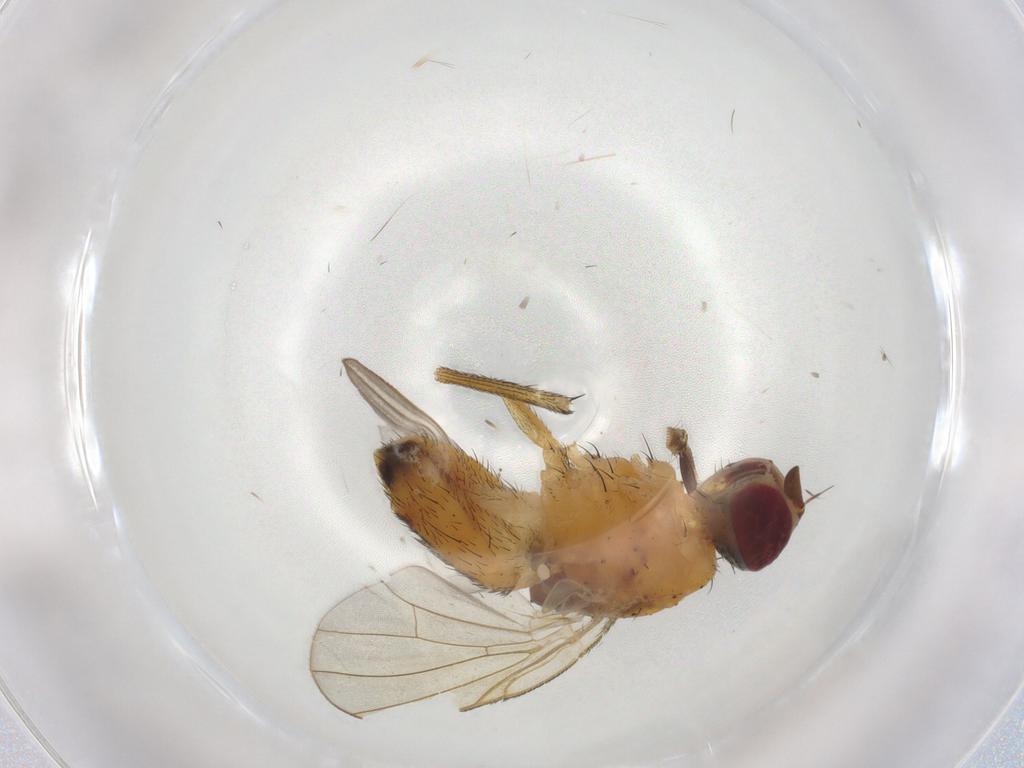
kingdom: Animalia
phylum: Arthropoda
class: Insecta
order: Diptera
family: Muscidae
